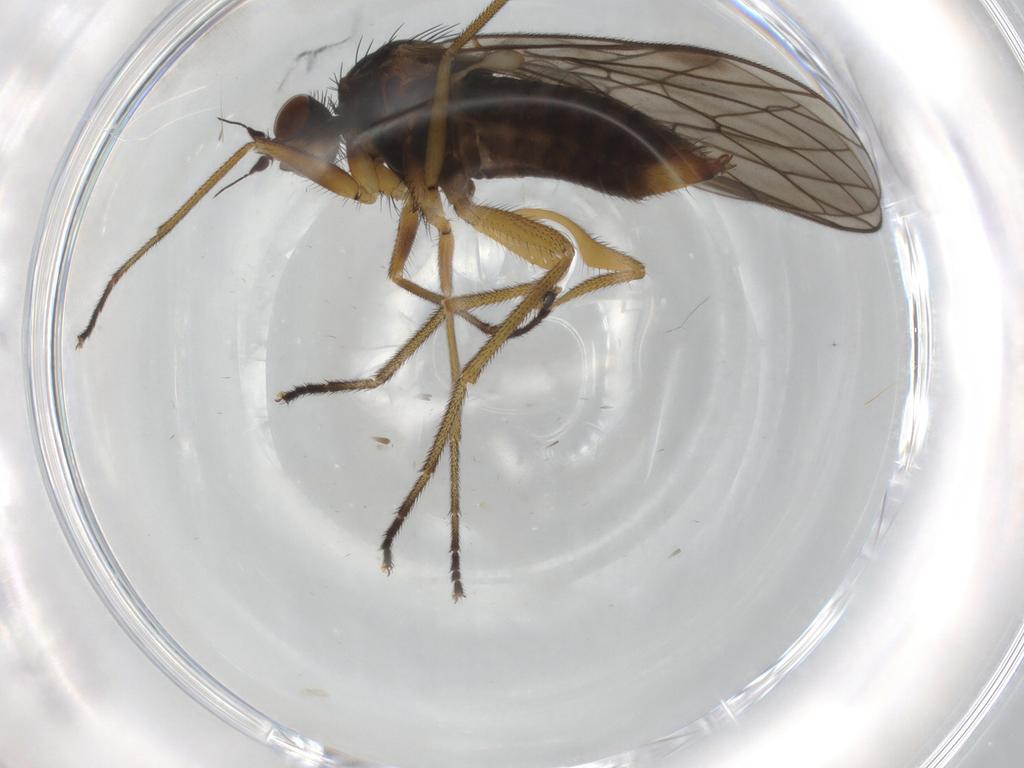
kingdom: Animalia
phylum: Arthropoda
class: Insecta
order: Diptera
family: Brachystomatidae
